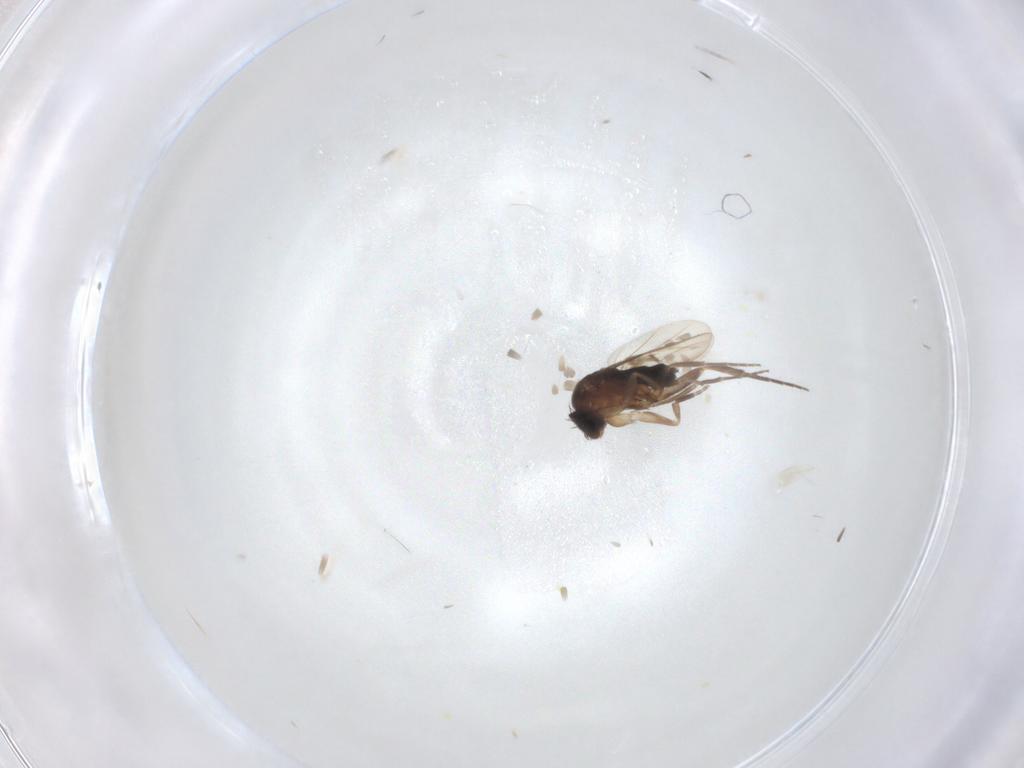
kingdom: Animalia
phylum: Arthropoda
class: Insecta
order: Diptera
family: Phoridae
